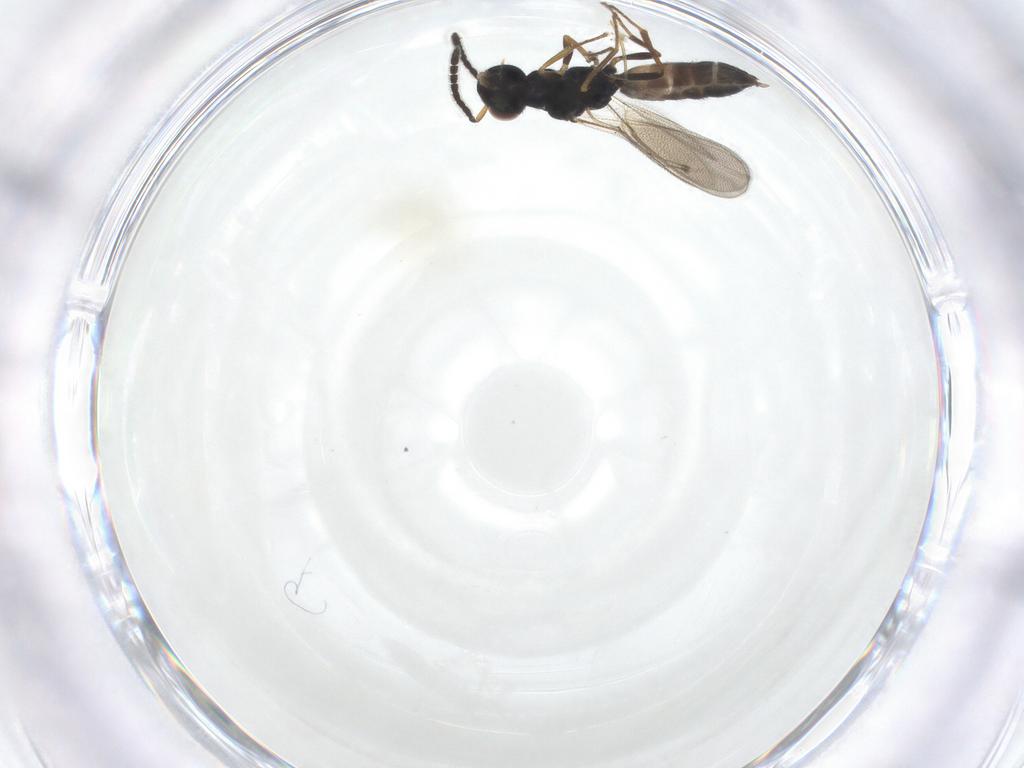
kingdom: Animalia
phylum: Arthropoda
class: Insecta
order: Hymenoptera
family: Pteromalidae
